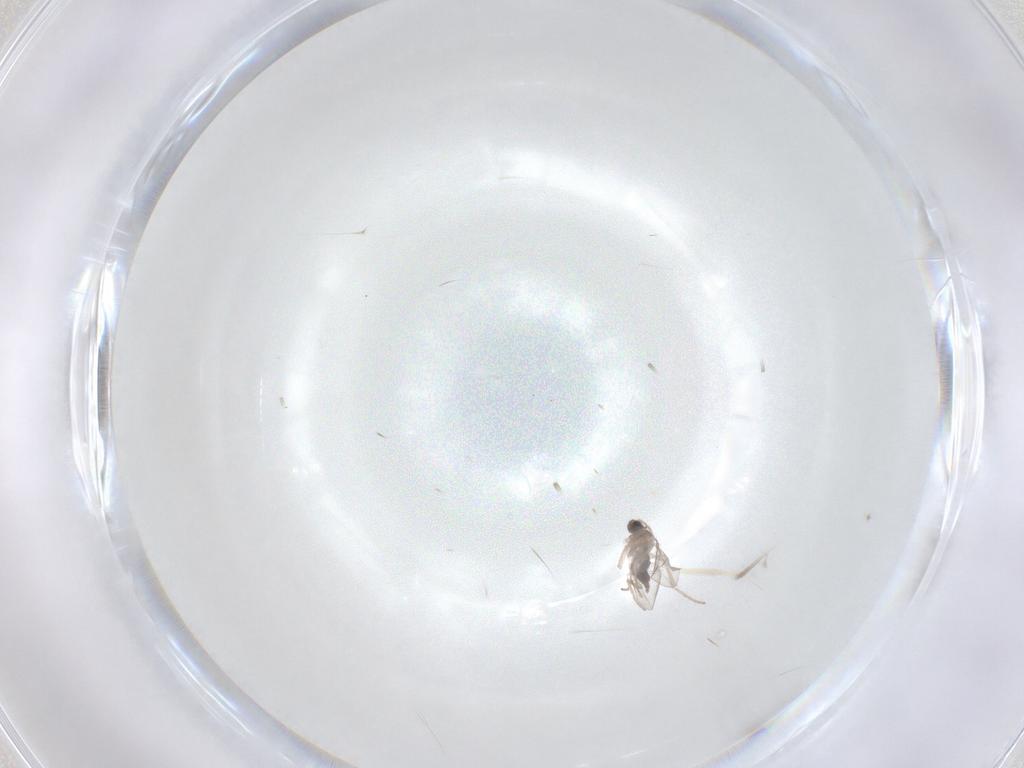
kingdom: Animalia
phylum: Arthropoda
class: Insecta
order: Diptera
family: Cecidomyiidae
